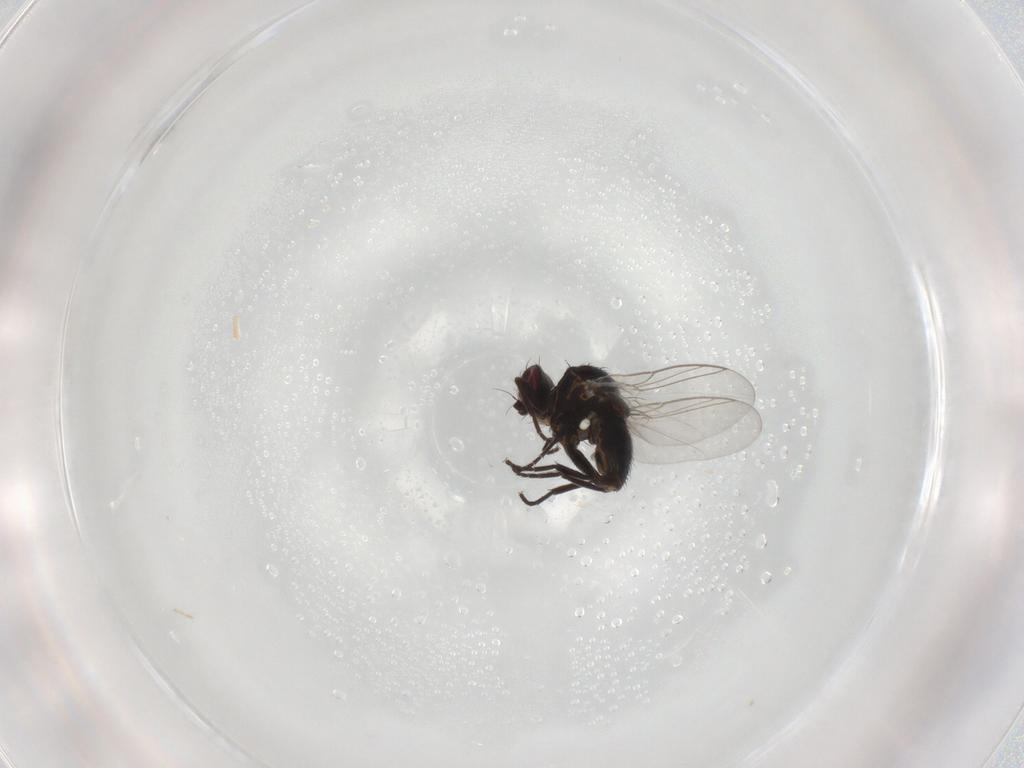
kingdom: Animalia
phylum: Arthropoda
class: Insecta
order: Diptera
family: Agromyzidae
